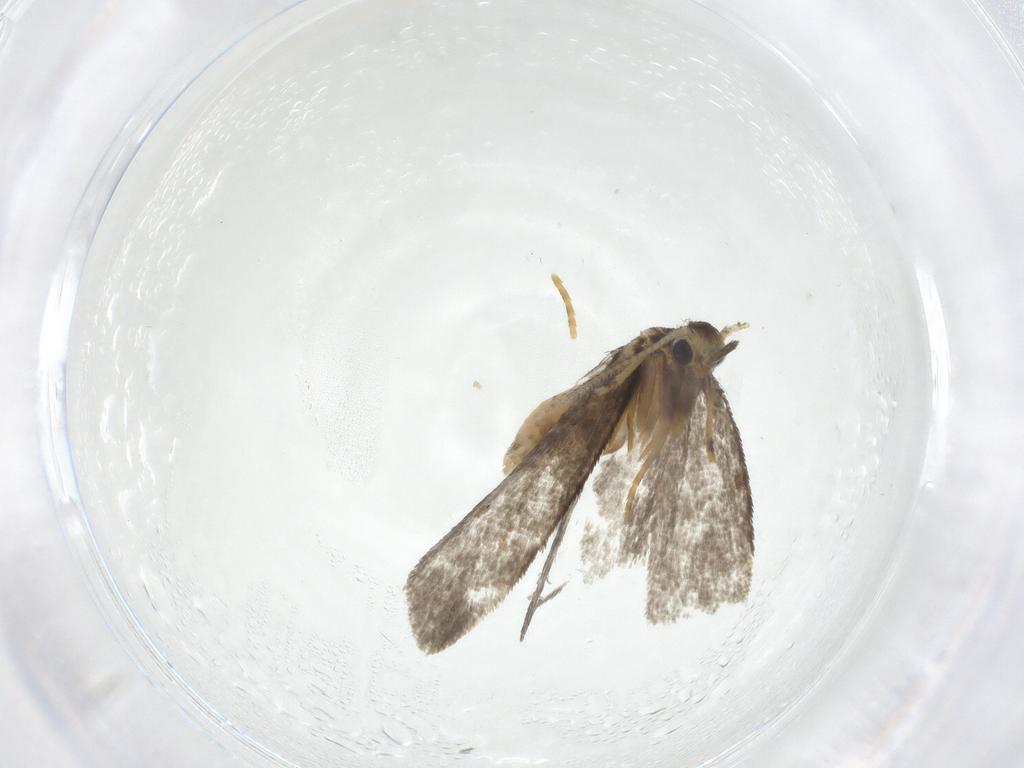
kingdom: Animalia
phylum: Arthropoda
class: Insecta
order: Lepidoptera
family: Psychidae
